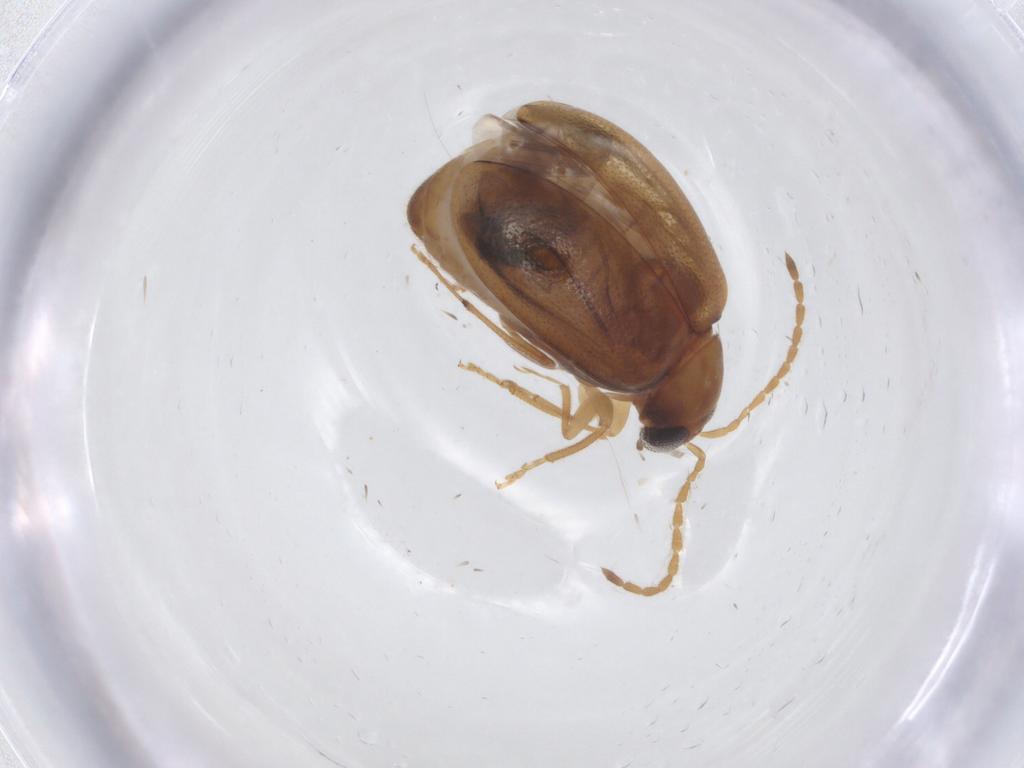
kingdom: Animalia
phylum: Arthropoda
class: Insecta
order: Coleoptera
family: Chrysomelidae
